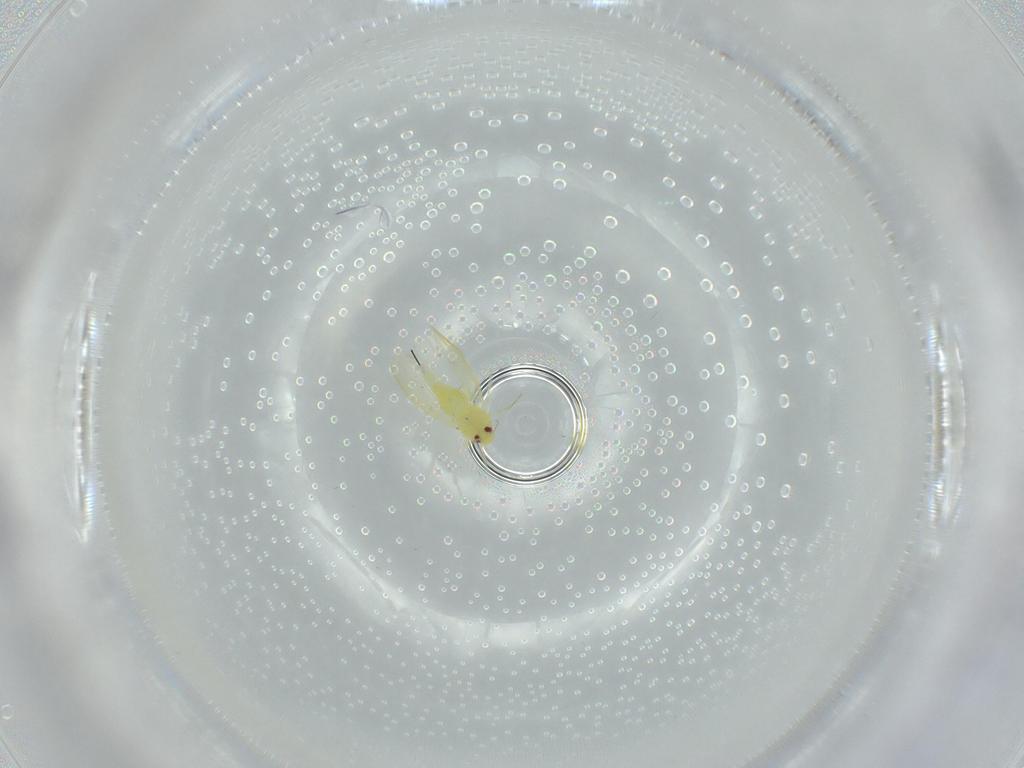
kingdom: Animalia
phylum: Arthropoda
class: Insecta
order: Hemiptera
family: Aleyrodidae
